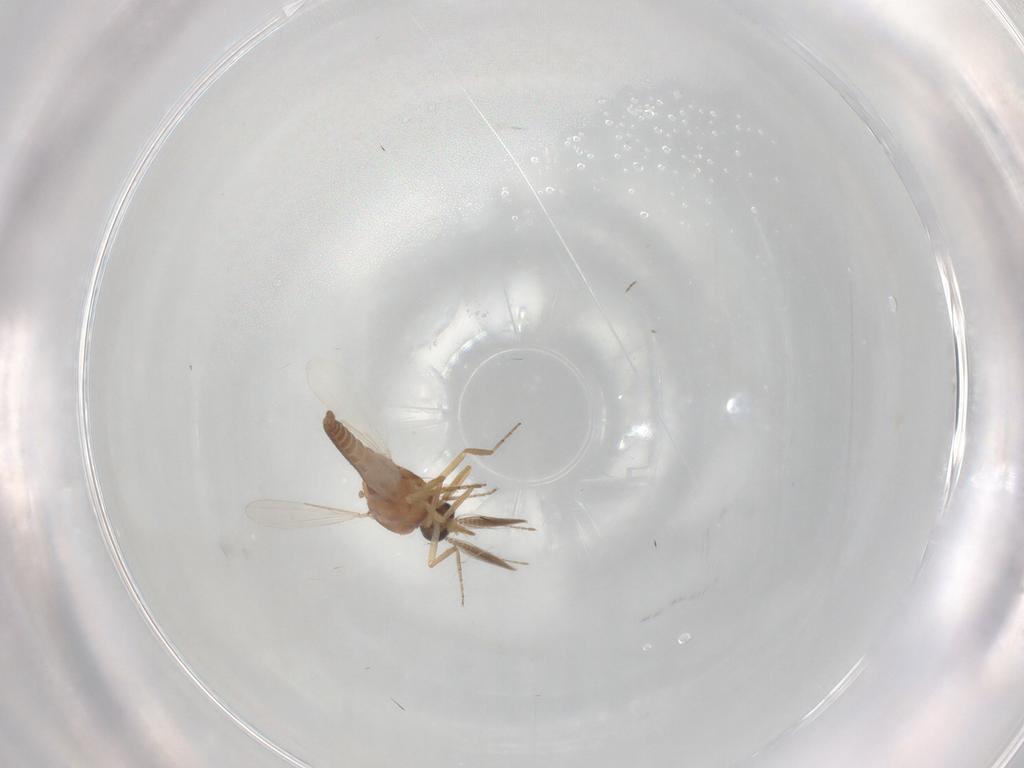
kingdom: Animalia
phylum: Arthropoda
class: Insecta
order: Diptera
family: Ceratopogonidae
